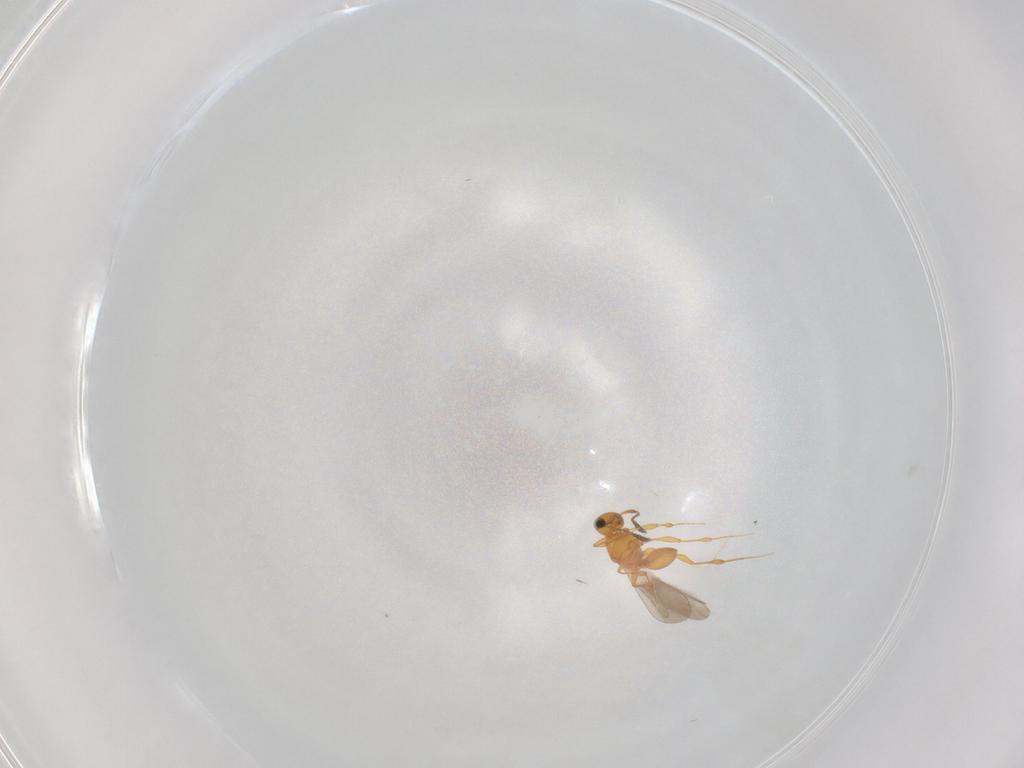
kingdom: Animalia
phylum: Arthropoda
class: Insecta
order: Hymenoptera
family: Platygastridae
